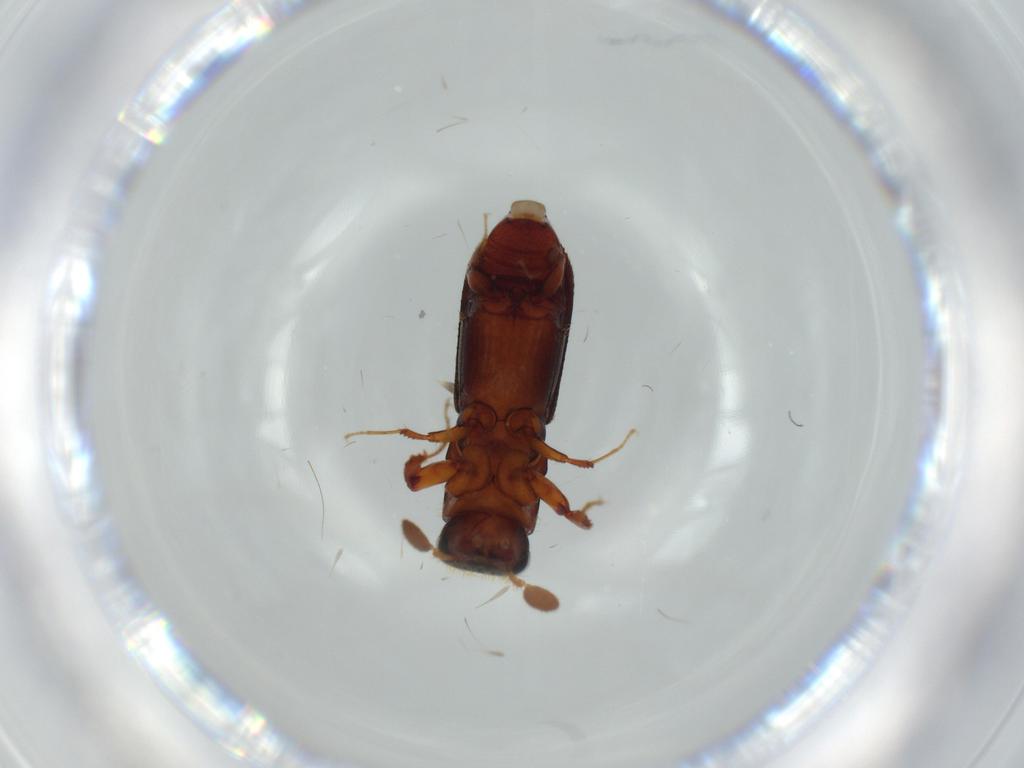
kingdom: Animalia
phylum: Arthropoda
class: Insecta
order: Coleoptera
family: Curculionidae
